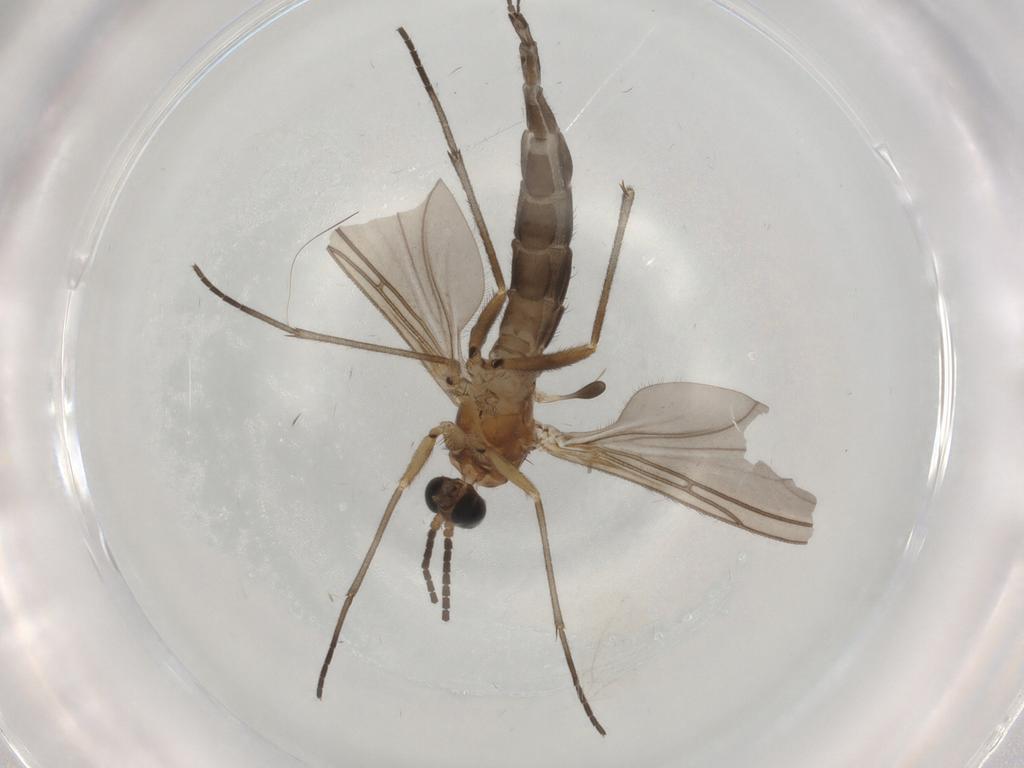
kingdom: Animalia
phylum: Arthropoda
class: Insecta
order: Diptera
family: Sciaridae
